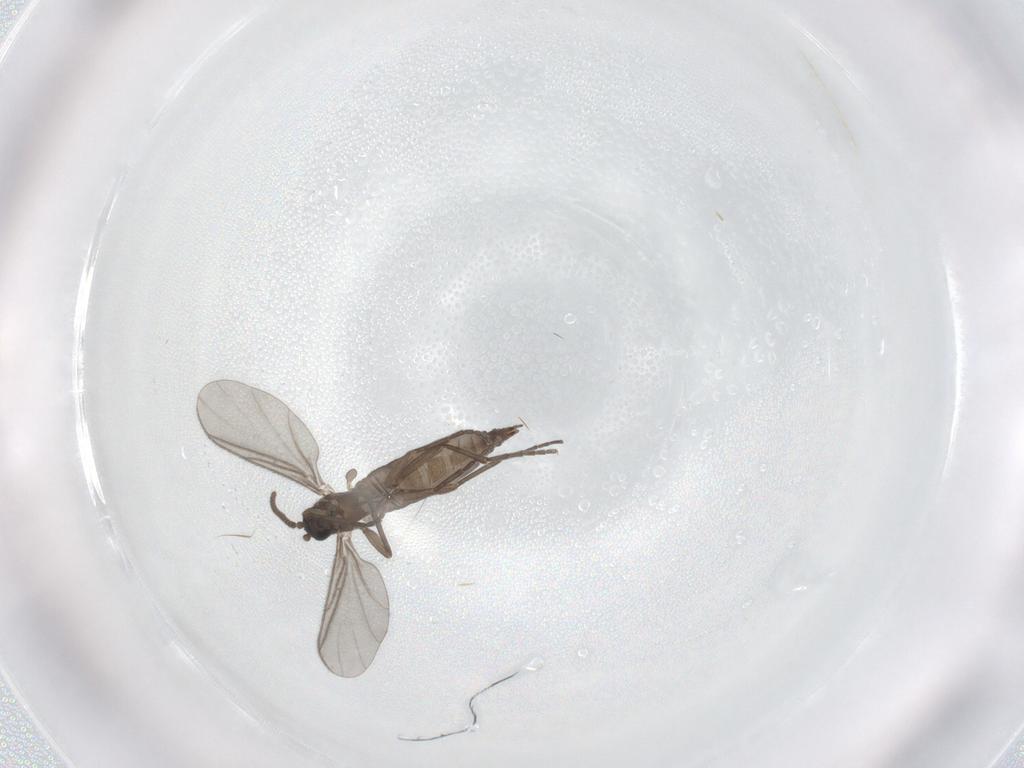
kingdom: Animalia
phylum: Arthropoda
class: Insecta
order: Diptera
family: Sciaridae
